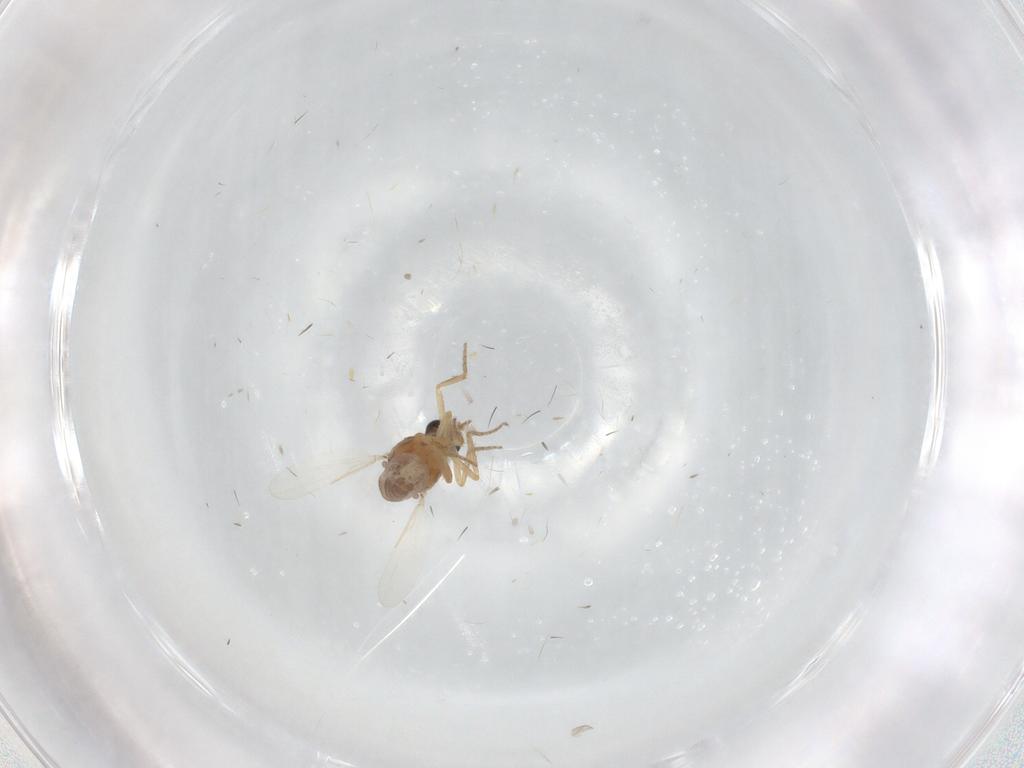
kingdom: Animalia
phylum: Arthropoda
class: Insecta
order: Diptera
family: Ceratopogonidae
